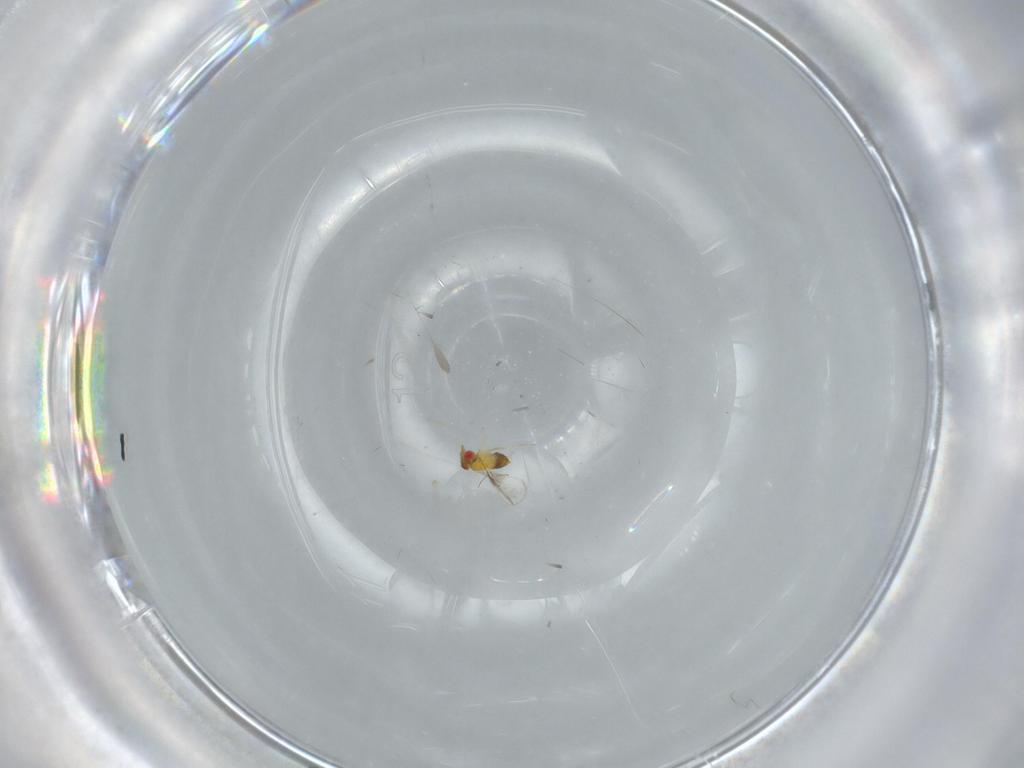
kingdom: Animalia
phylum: Arthropoda
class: Insecta
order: Hymenoptera
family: Trichogrammatidae
